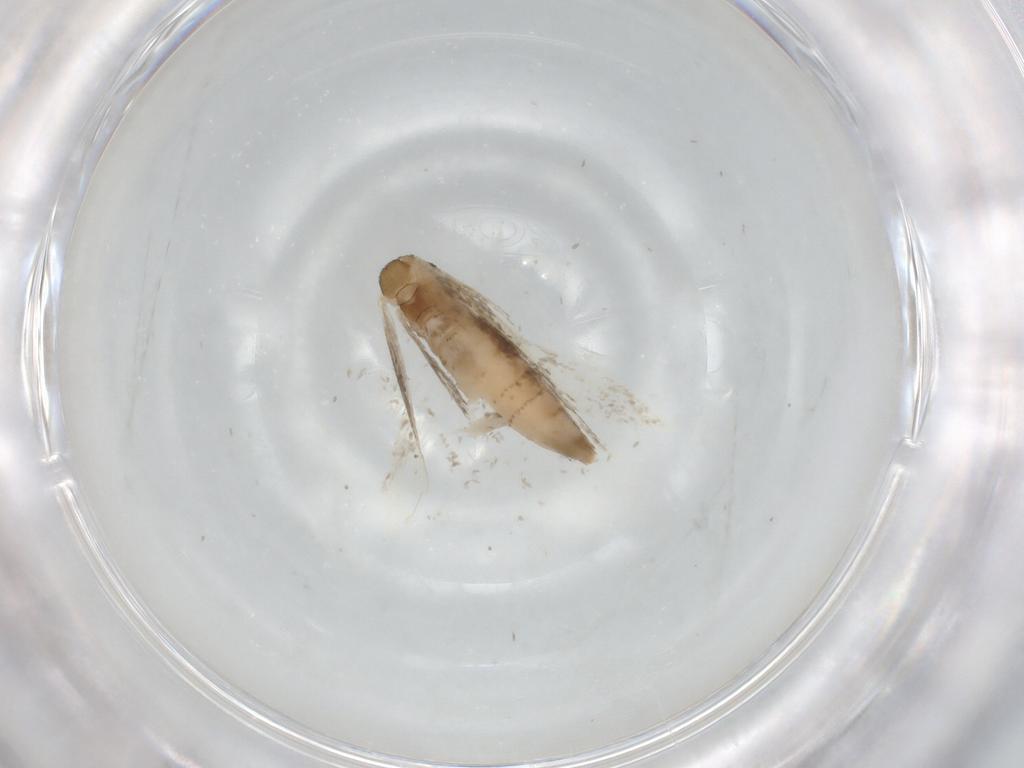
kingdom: Animalia
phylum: Arthropoda
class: Insecta
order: Lepidoptera
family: Tineidae
